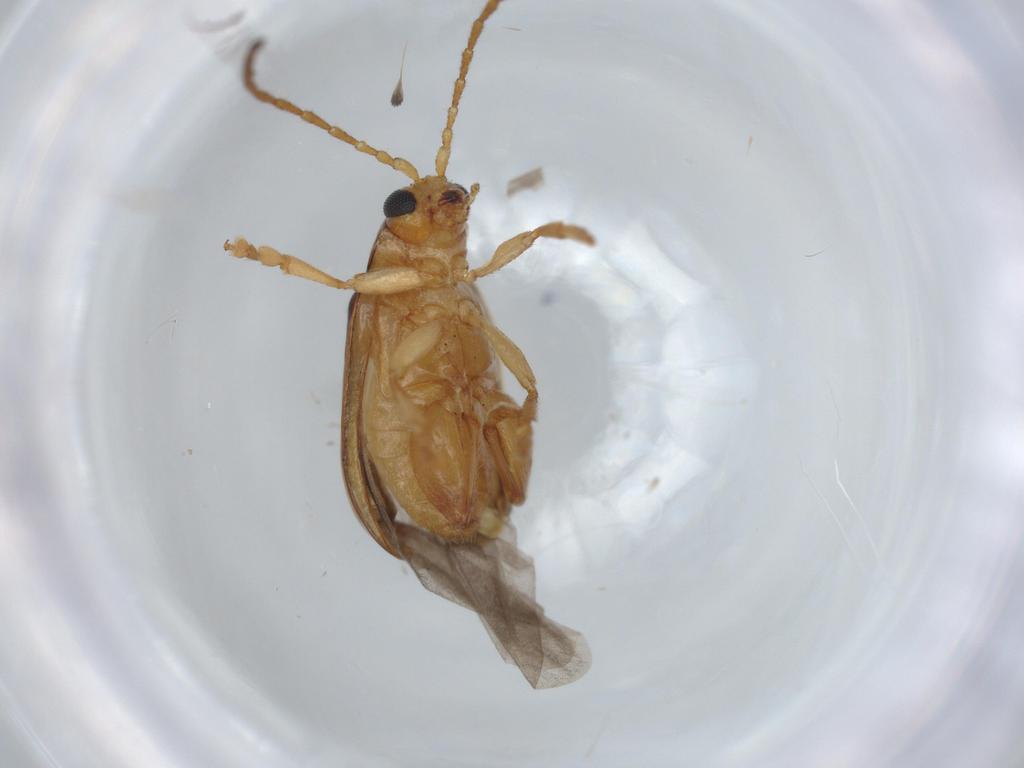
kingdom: Animalia
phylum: Arthropoda
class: Insecta
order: Coleoptera
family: Chrysomelidae
